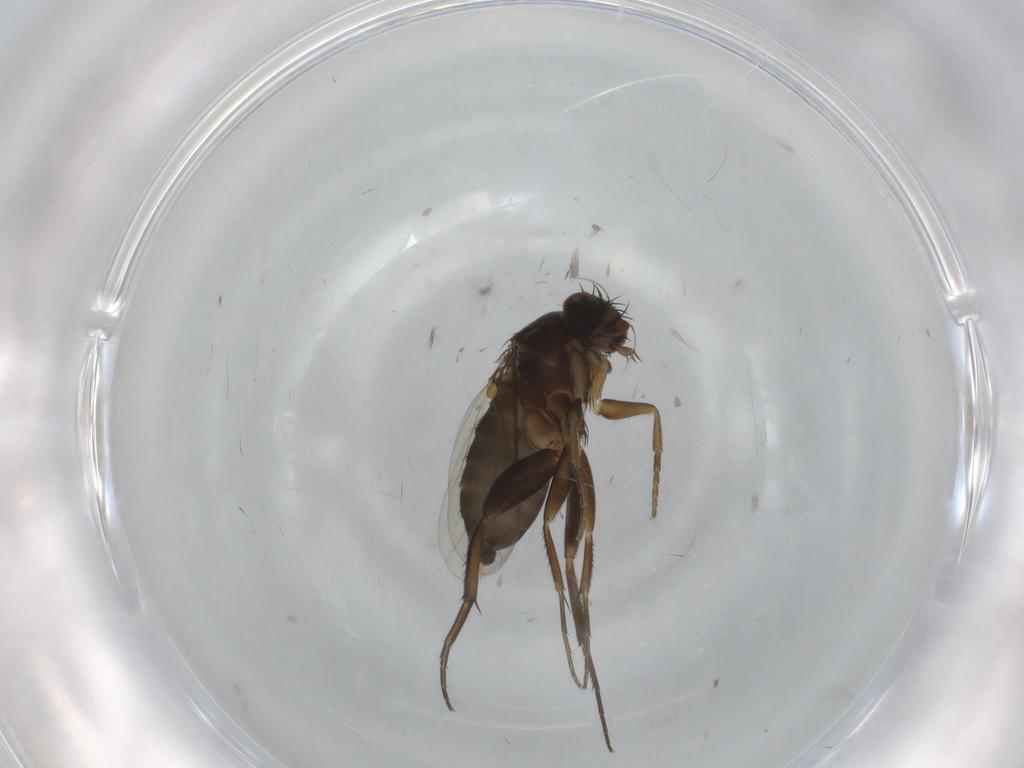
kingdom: Animalia
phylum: Arthropoda
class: Insecta
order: Diptera
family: Phoridae
